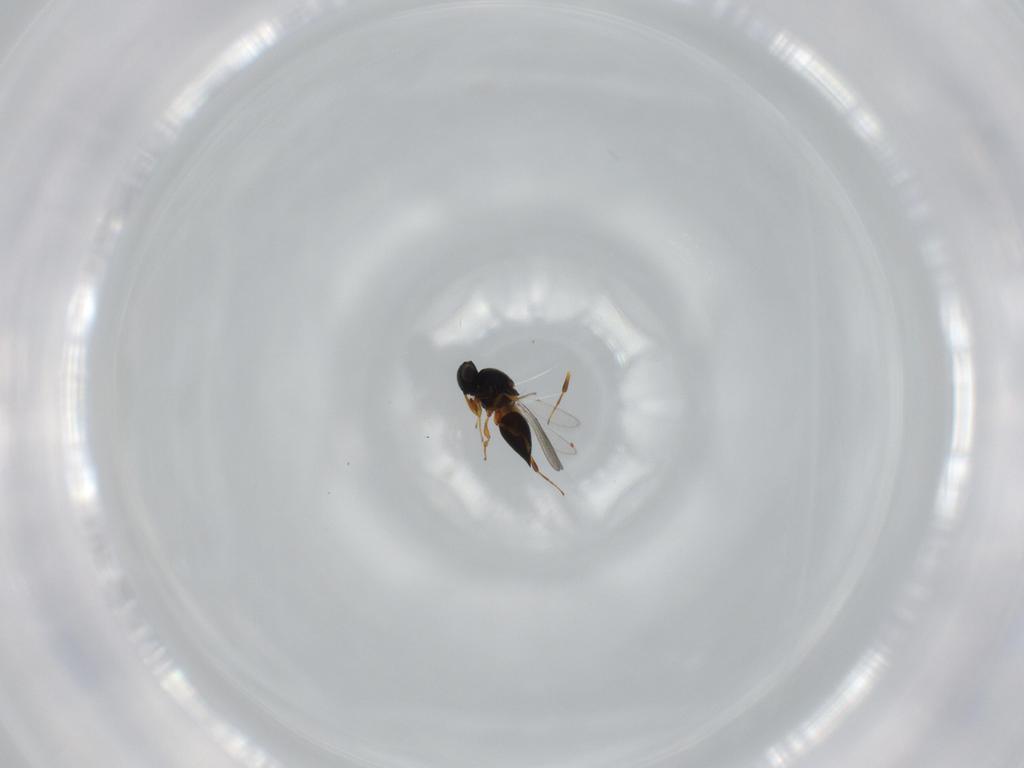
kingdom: Animalia
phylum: Arthropoda
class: Insecta
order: Hymenoptera
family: Platygastridae
